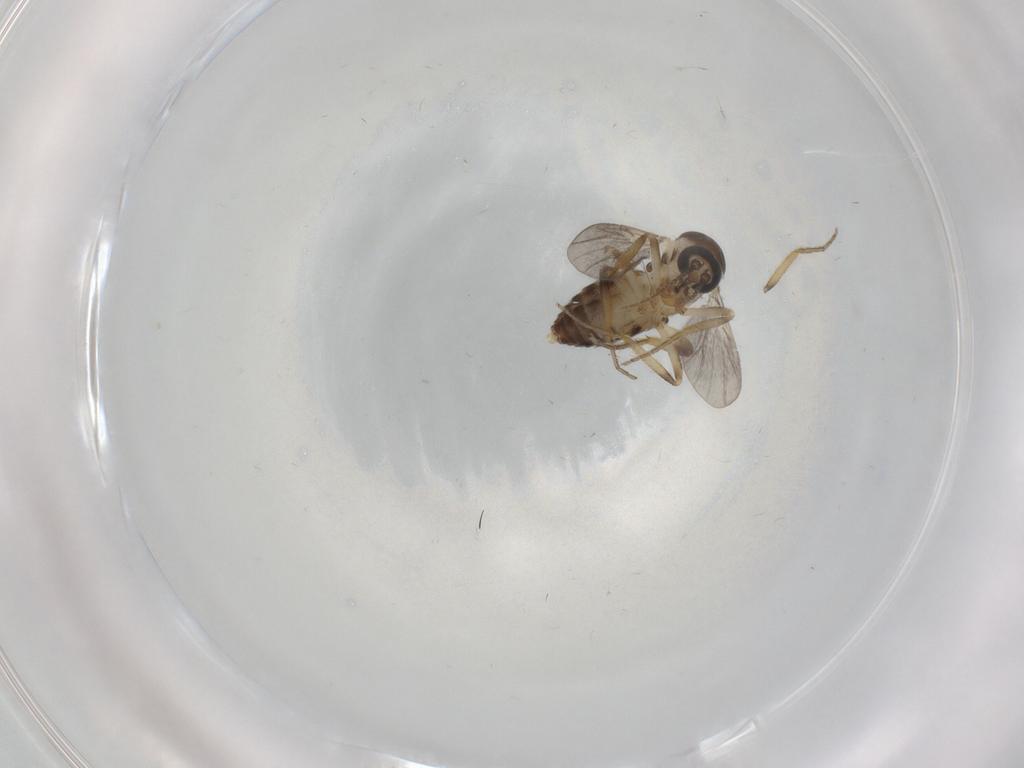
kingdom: Animalia
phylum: Arthropoda
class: Insecta
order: Diptera
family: Ceratopogonidae
